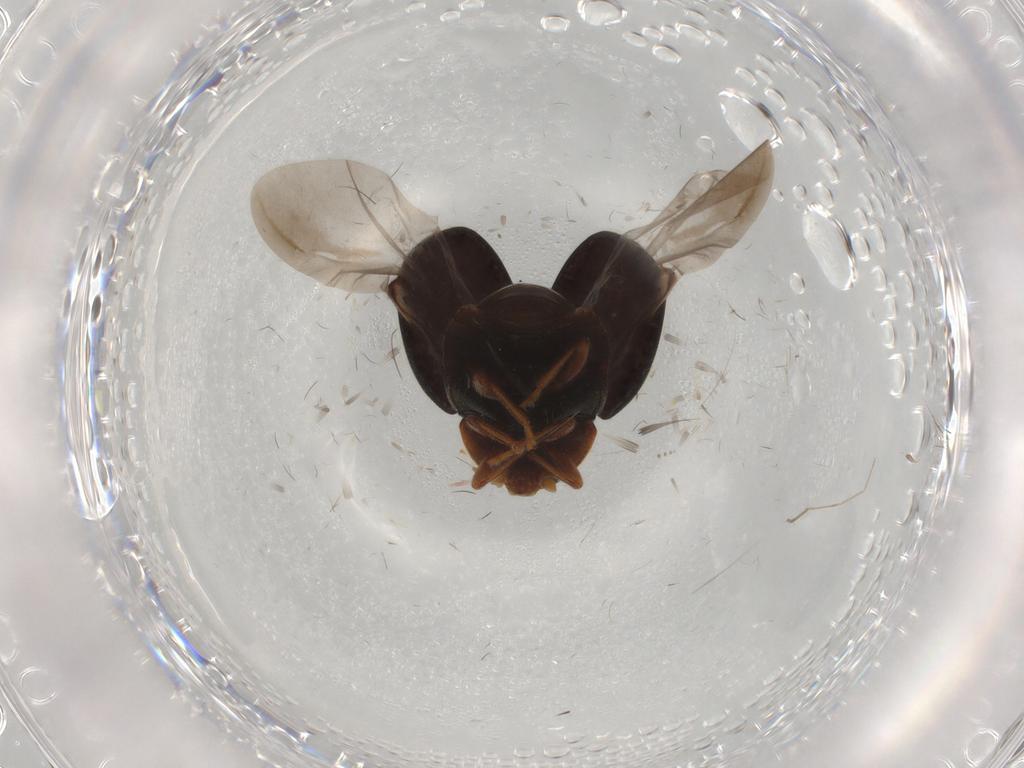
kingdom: Animalia
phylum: Arthropoda
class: Insecta
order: Coleoptera
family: Coccinellidae
